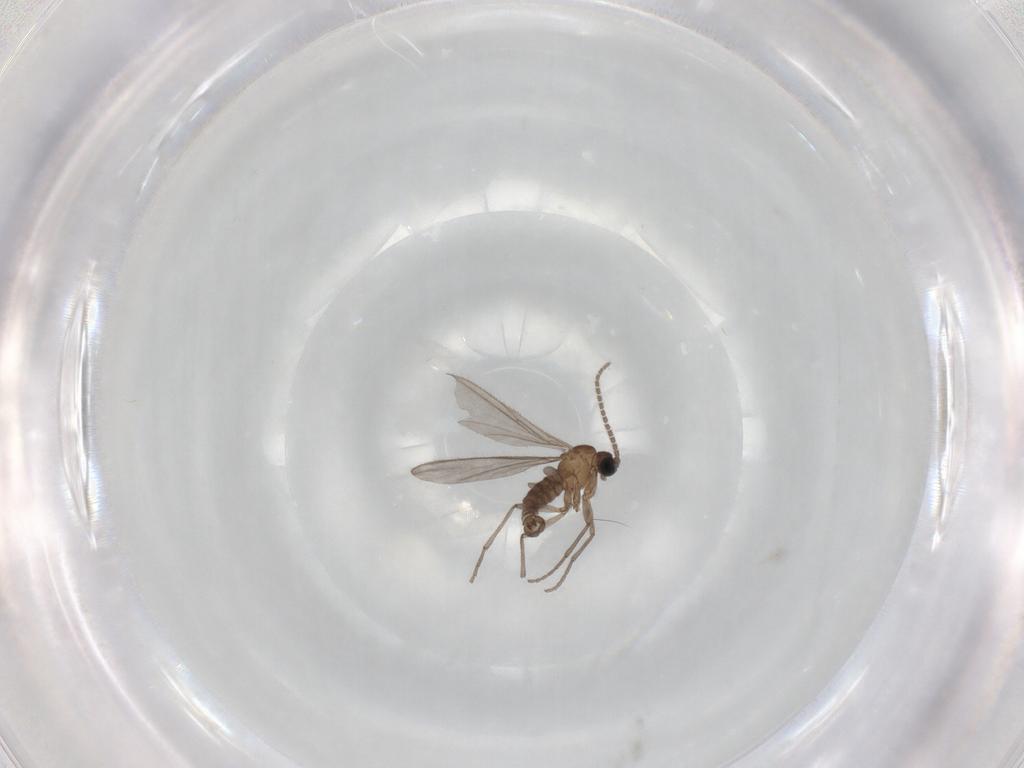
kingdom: Animalia
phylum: Arthropoda
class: Insecta
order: Diptera
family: Sciaridae
